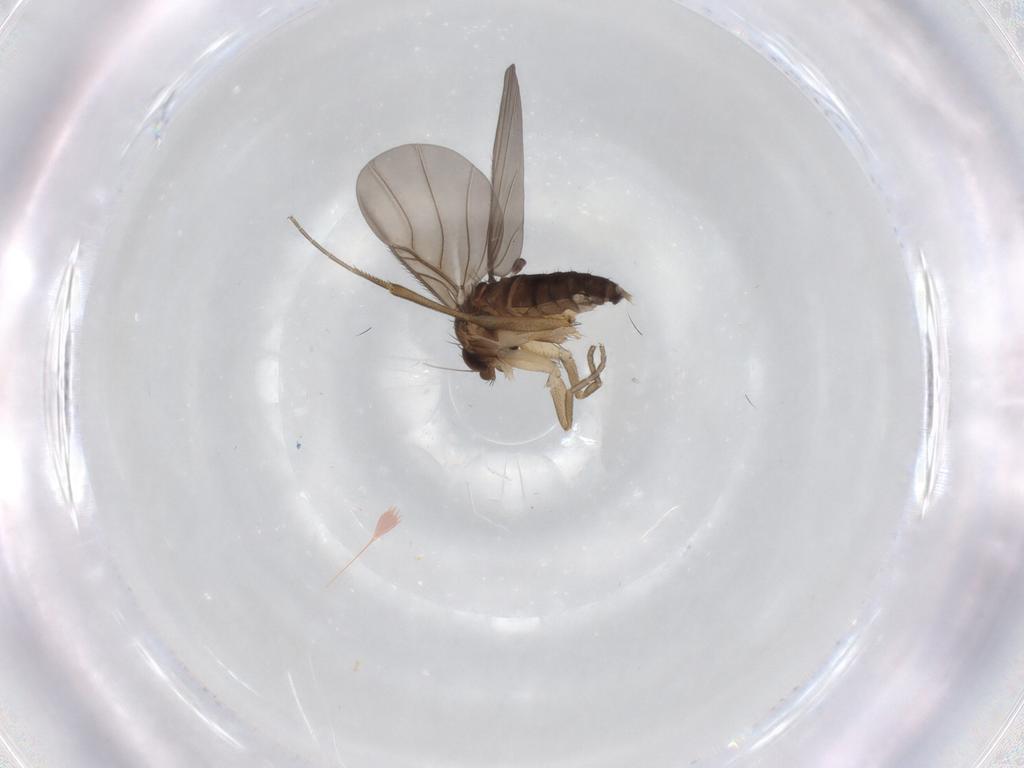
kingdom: Animalia
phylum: Arthropoda
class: Insecta
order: Diptera
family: Phoridae
